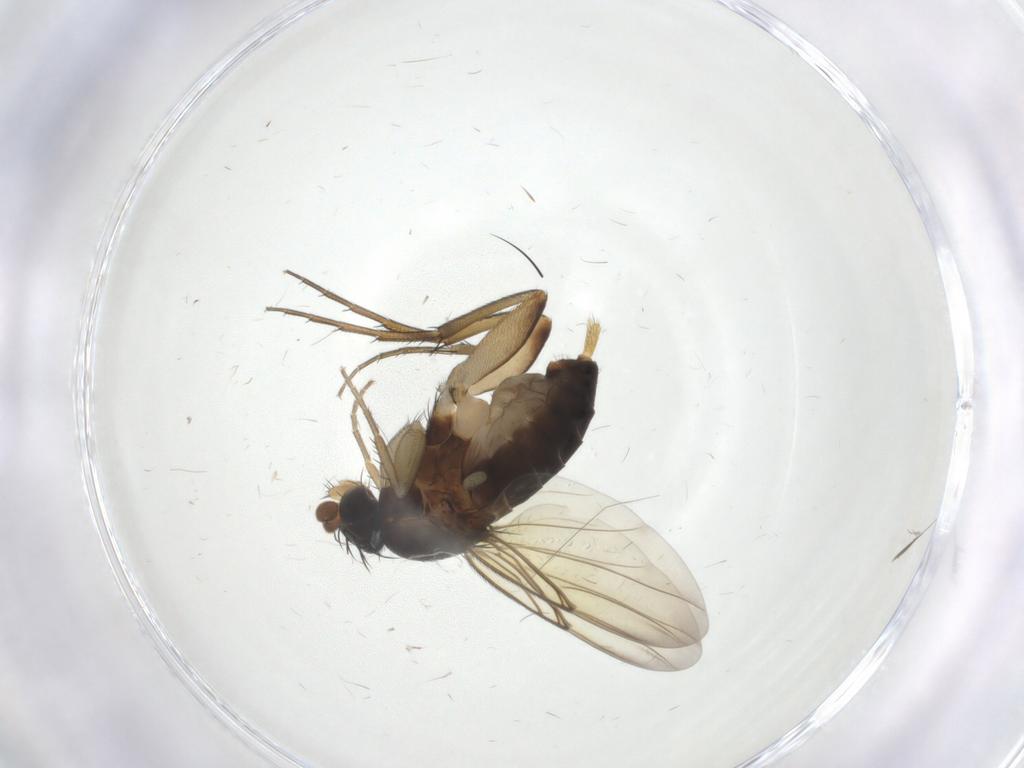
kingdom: Animalia
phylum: Arthropoda
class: Insecta
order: Diptera
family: Phoridae
